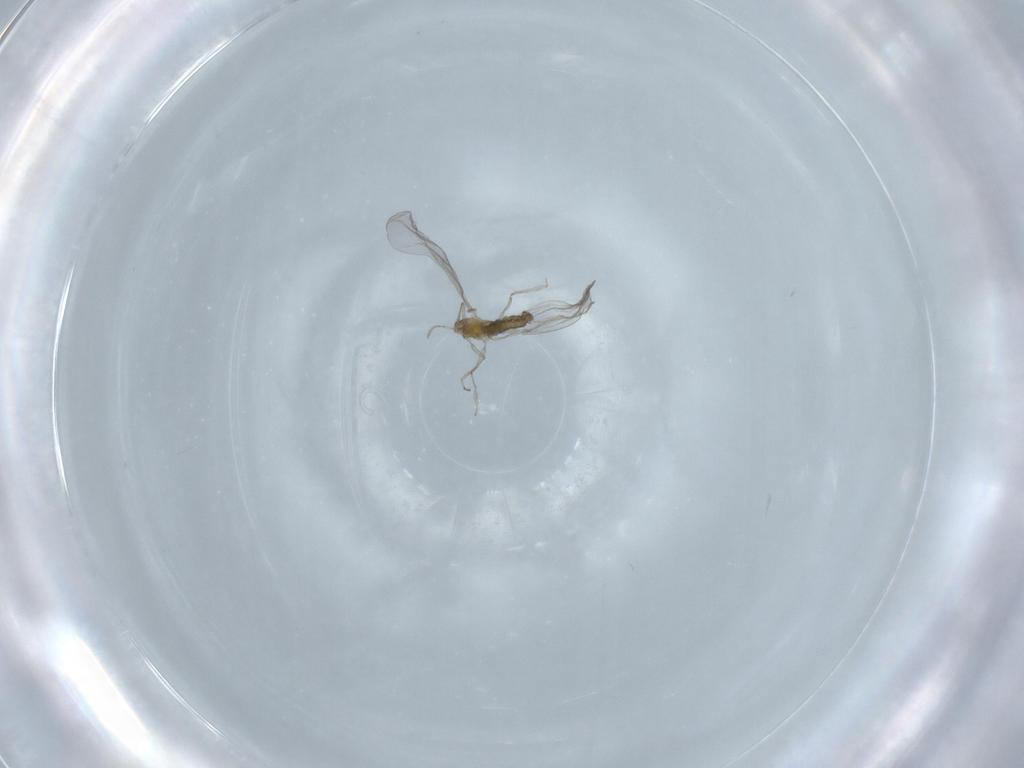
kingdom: Animalia
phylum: Arthropoda
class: Insecta
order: Diptera
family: Cecidomyiidae
